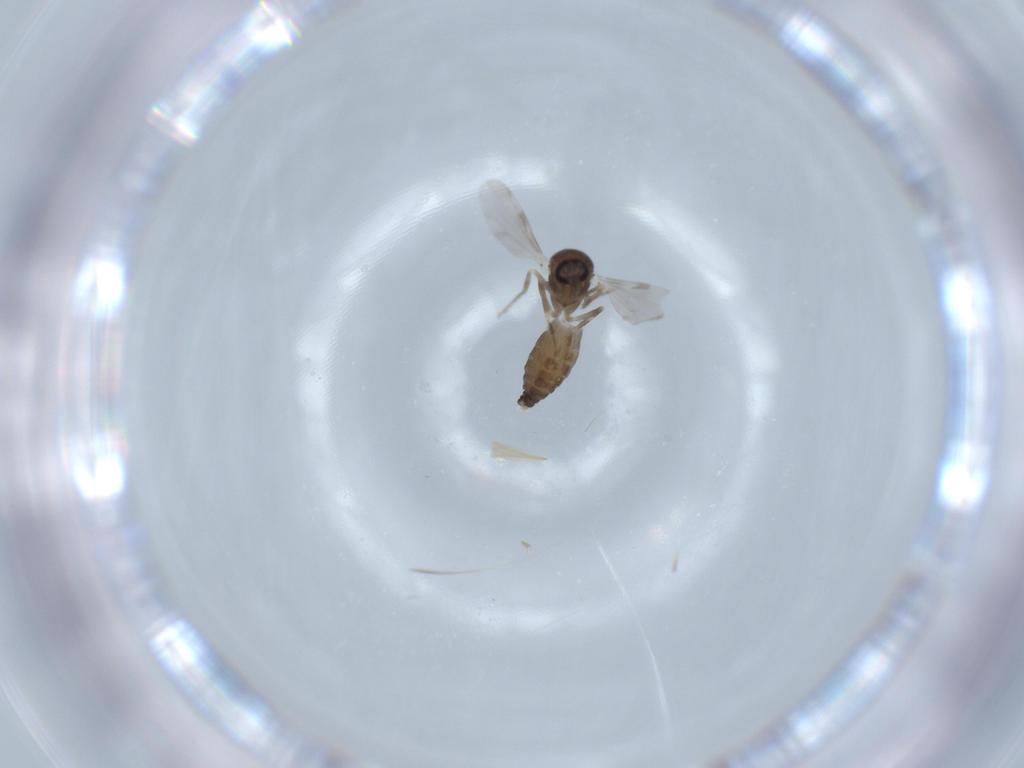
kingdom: Animalia
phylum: Arthropoda
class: Insecta
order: Diptera
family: Ceratopogonidae
